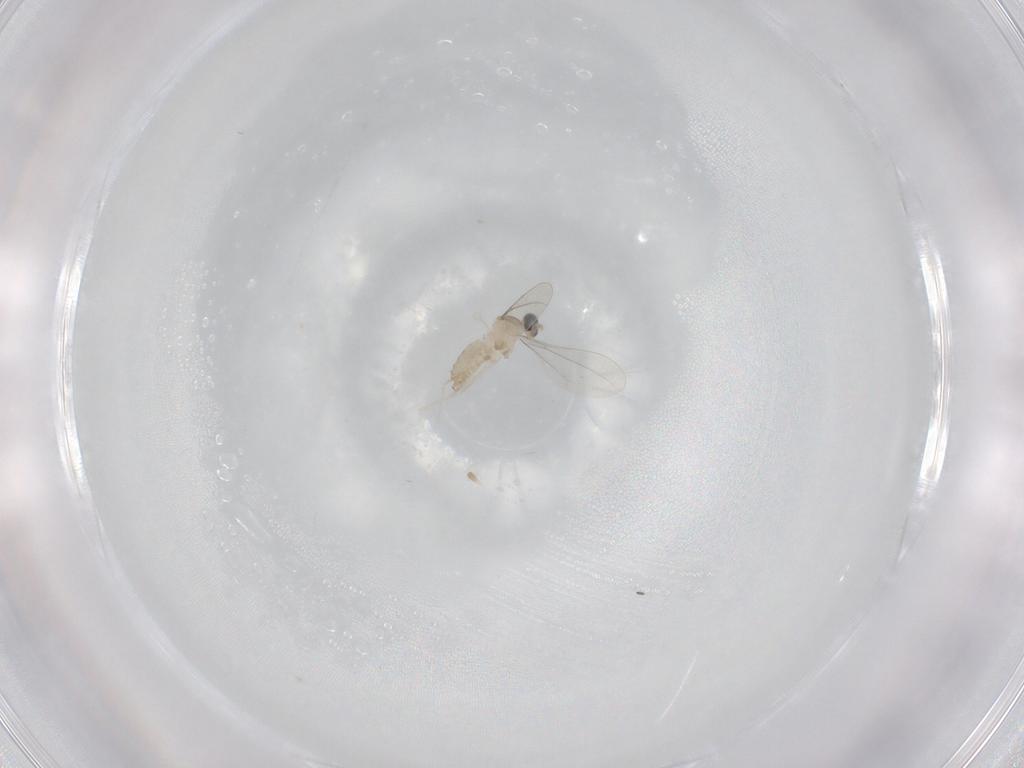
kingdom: Animalia
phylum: Arthropoda
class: Insecta
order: Diptera
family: Cecidomyiidae
